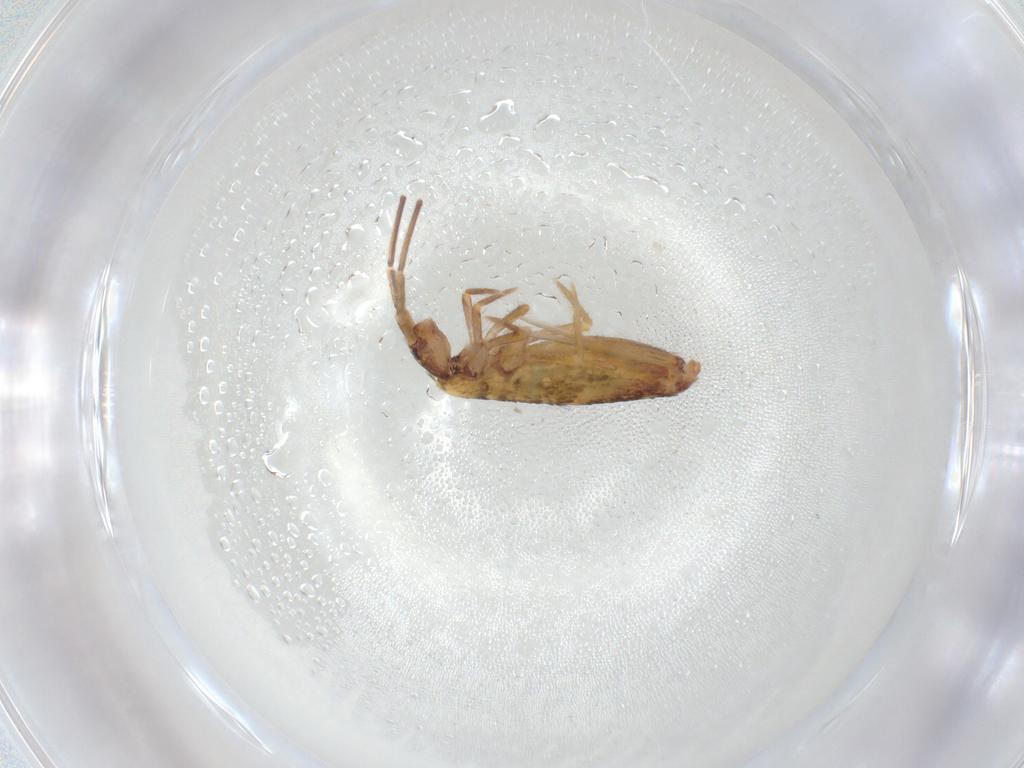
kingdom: Animalia
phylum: Arthropoda
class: Collembola
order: Entomobryomorpha
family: Entomobryidae
